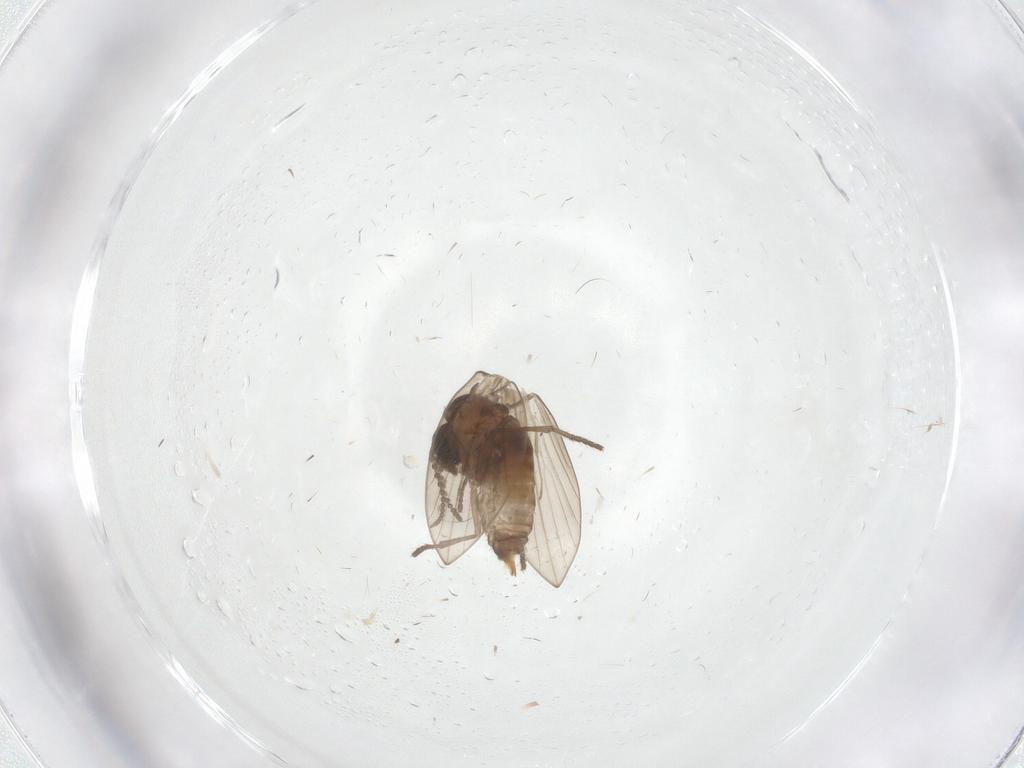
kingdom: Animalia
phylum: Arthropoda
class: Insecta
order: Diptera
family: Cecidomyiidae
